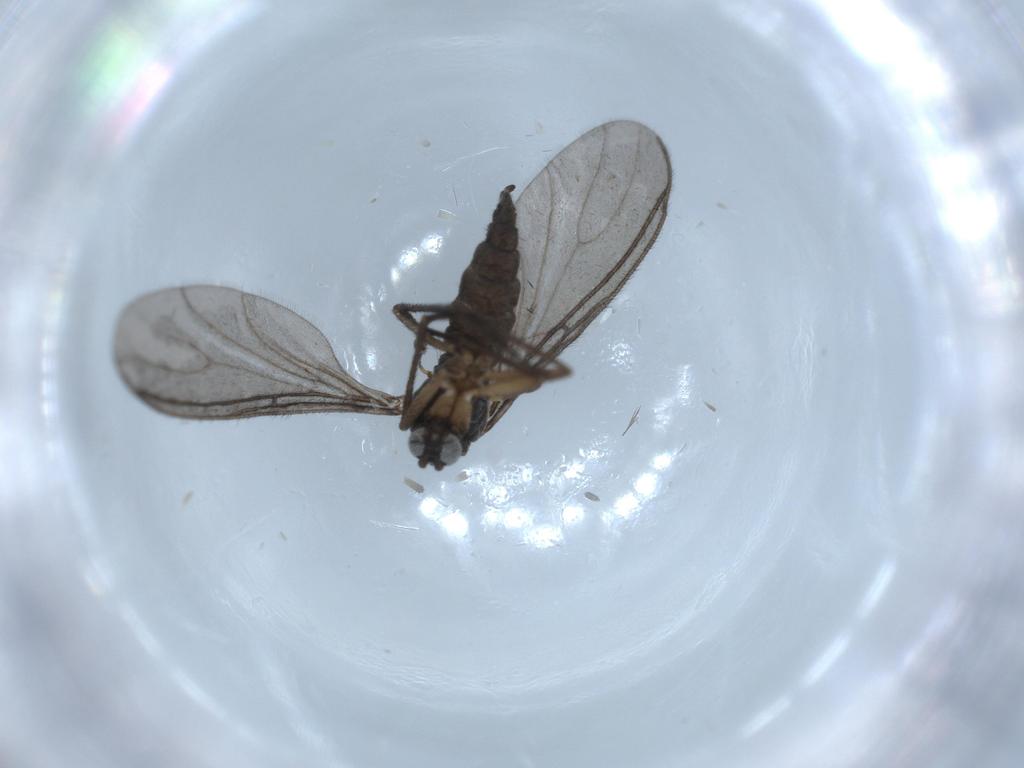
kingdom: Animalia
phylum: Arthropoda
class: Insecta
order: Diptera
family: Sciaridae
